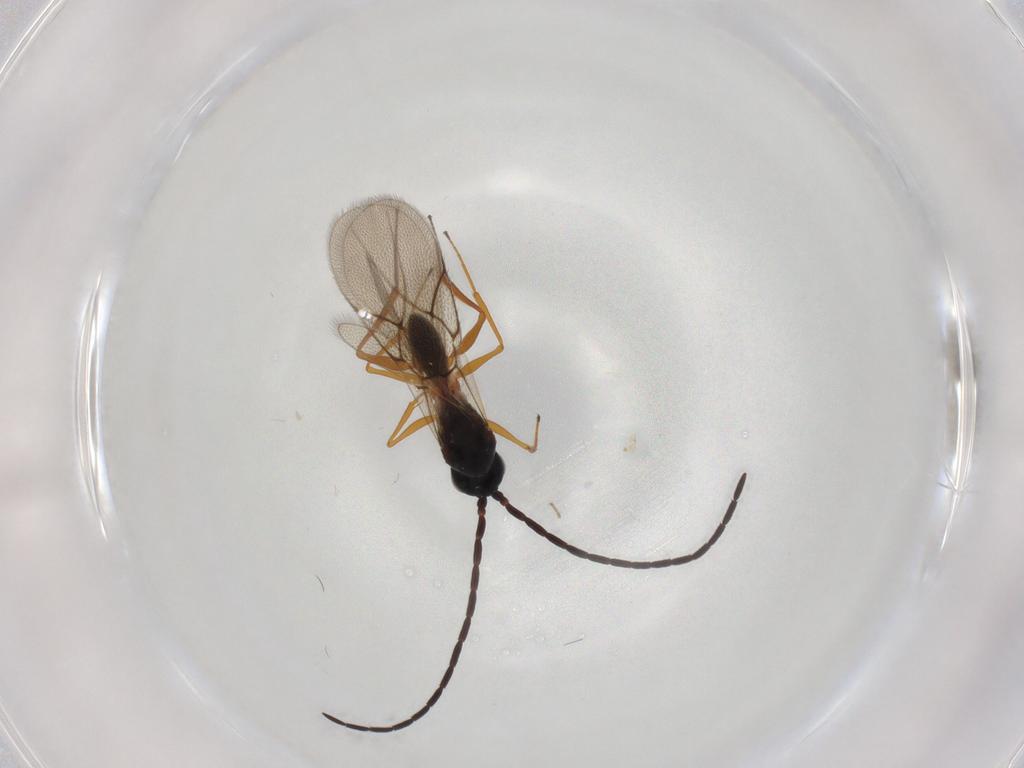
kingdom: Animalia
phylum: Arthropoda
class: Insecta
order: Hymenoptera
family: Figitidae
